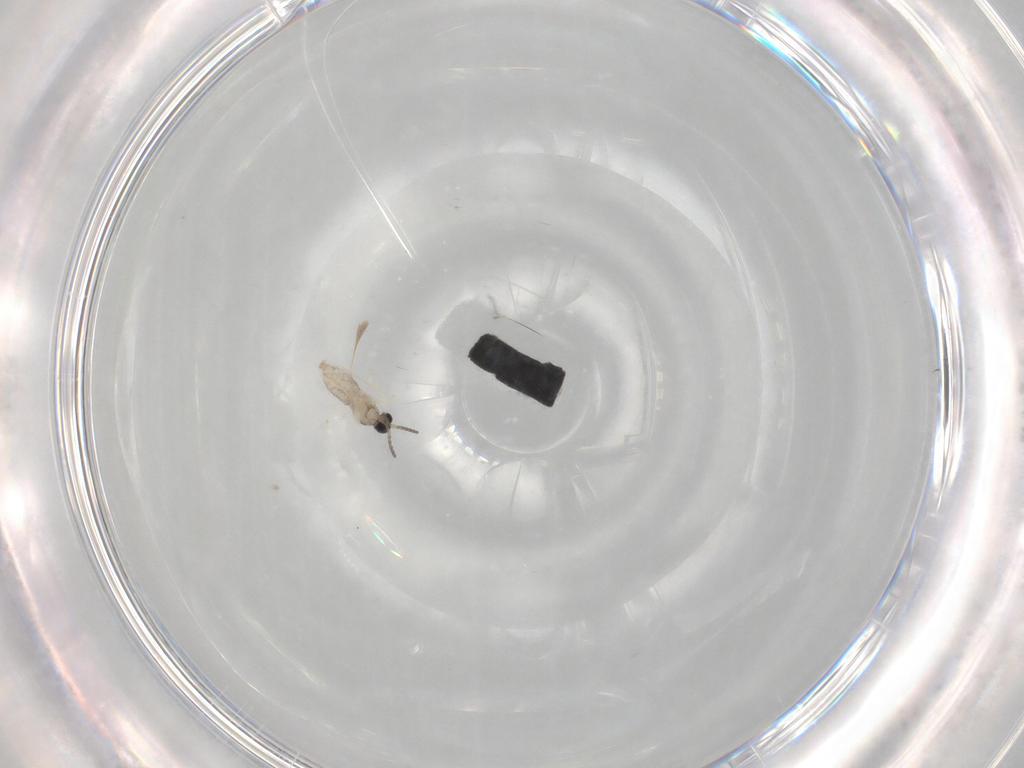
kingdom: Animalia
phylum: Arthropoda
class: Insecta
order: Diptera
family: Cecidomyiidae
